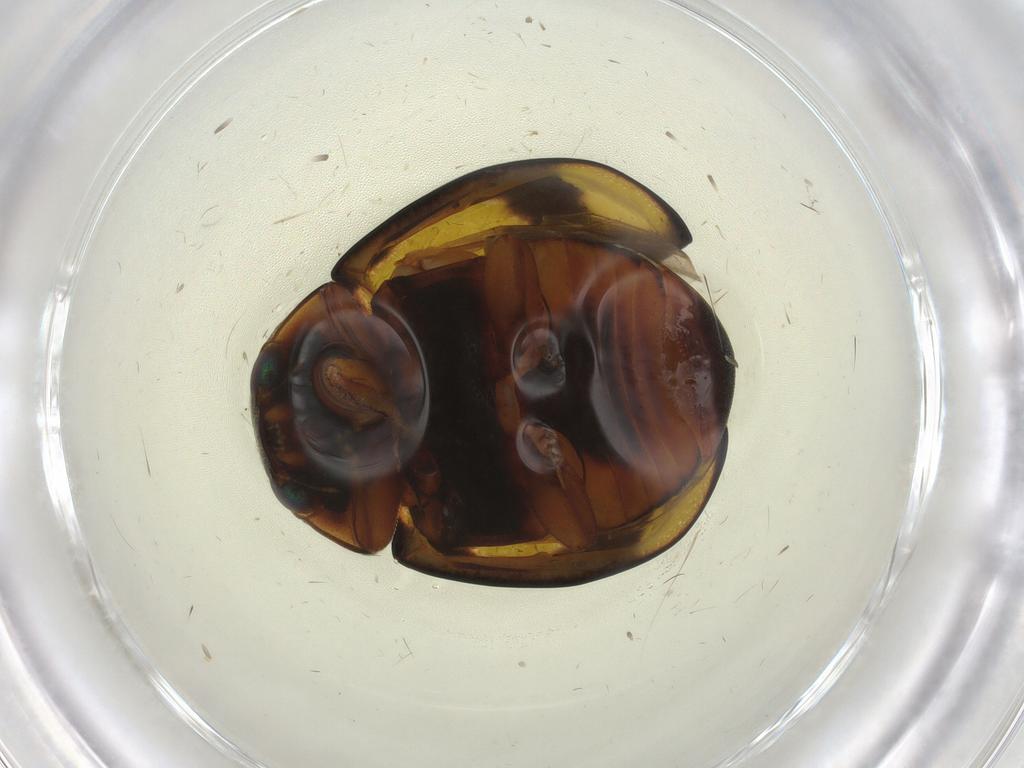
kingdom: Animalia
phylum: Arthropoda
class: Insecta
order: Coleoptera
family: Coccinellidae
